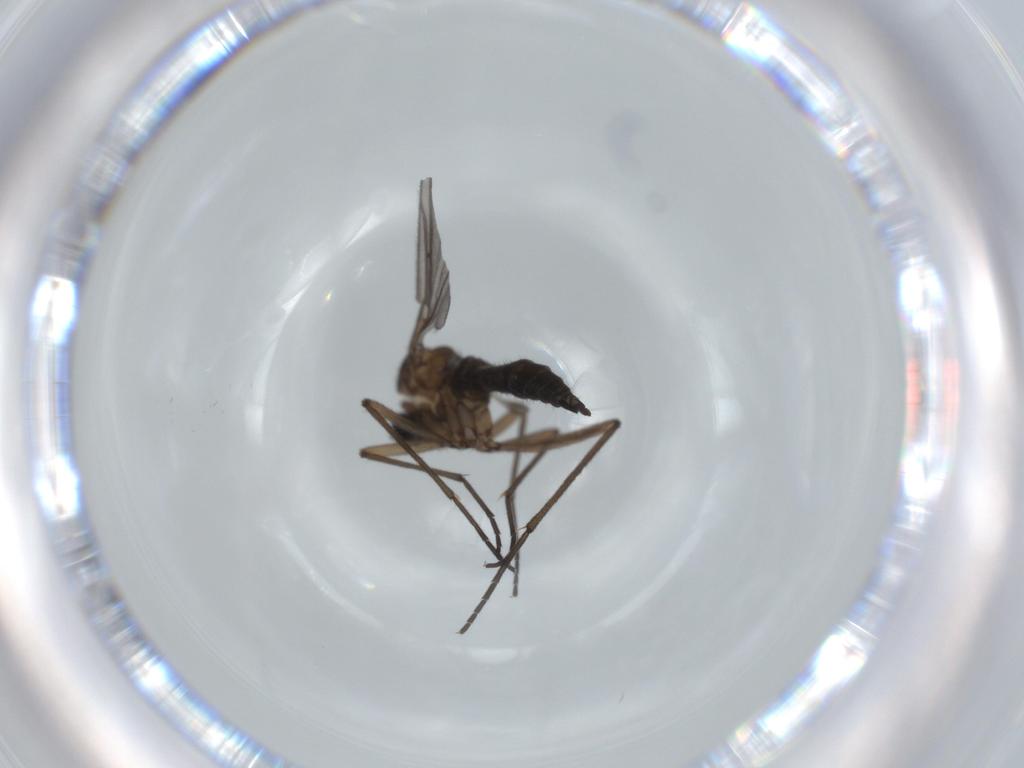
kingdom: Animalia
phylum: Arthropoda
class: Insecta
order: Diptera
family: Sciaridae
